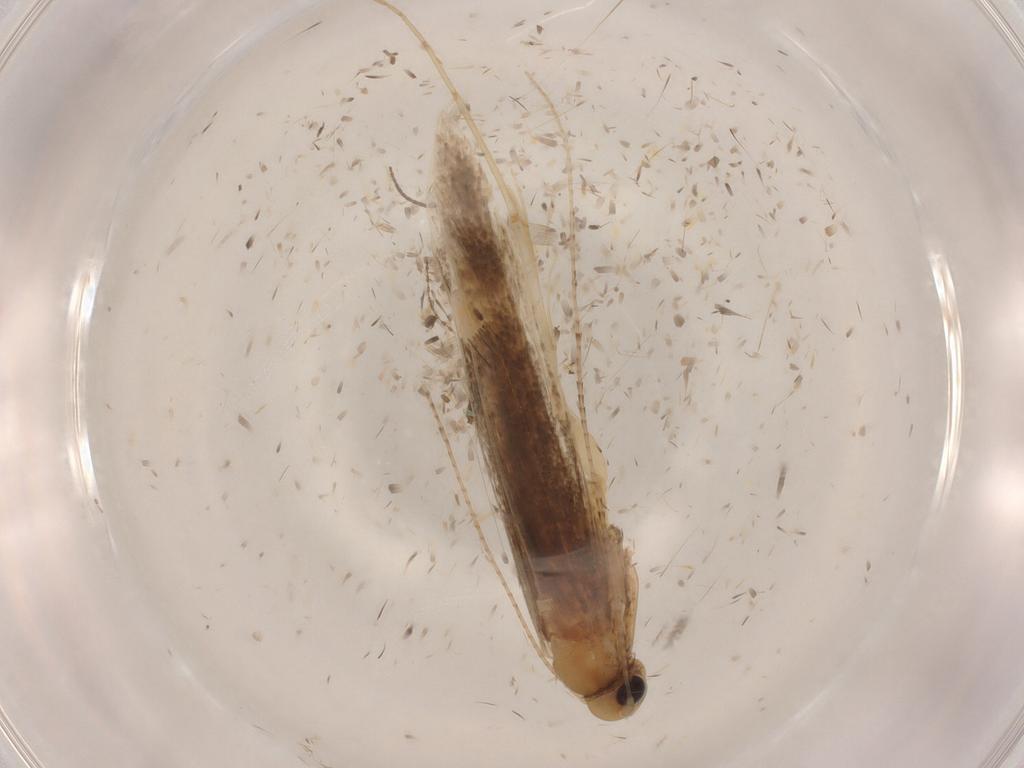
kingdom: Animalia
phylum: Arthropoda
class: Insecta
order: Lepidoptera
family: Gracillariidae
